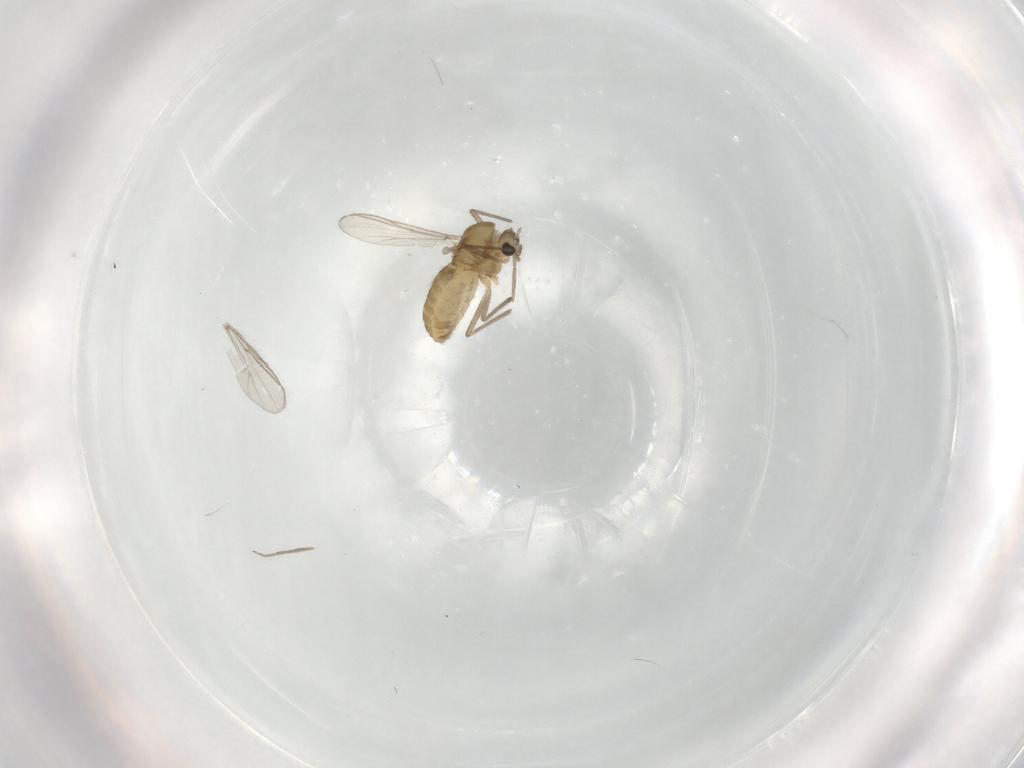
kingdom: Animalia
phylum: Arthropoda
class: Insecta
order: Diptera
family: Chironomidae
